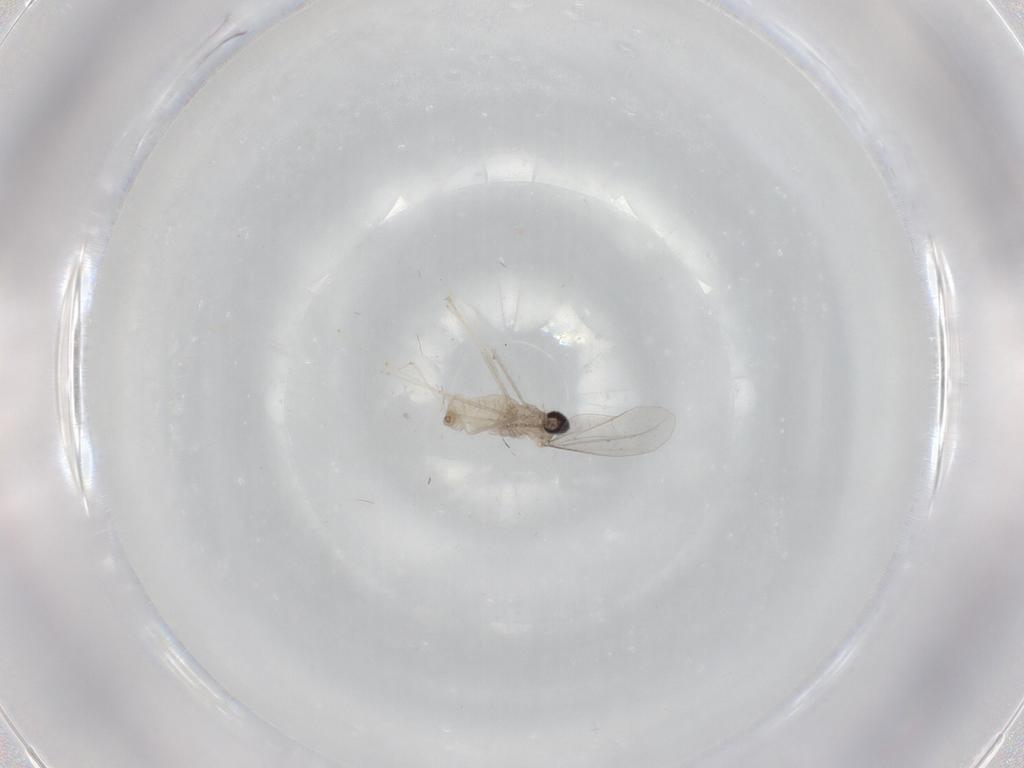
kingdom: Animalia
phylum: Arthropoda
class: Insecta
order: Diptera
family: Cecidomyiidae
